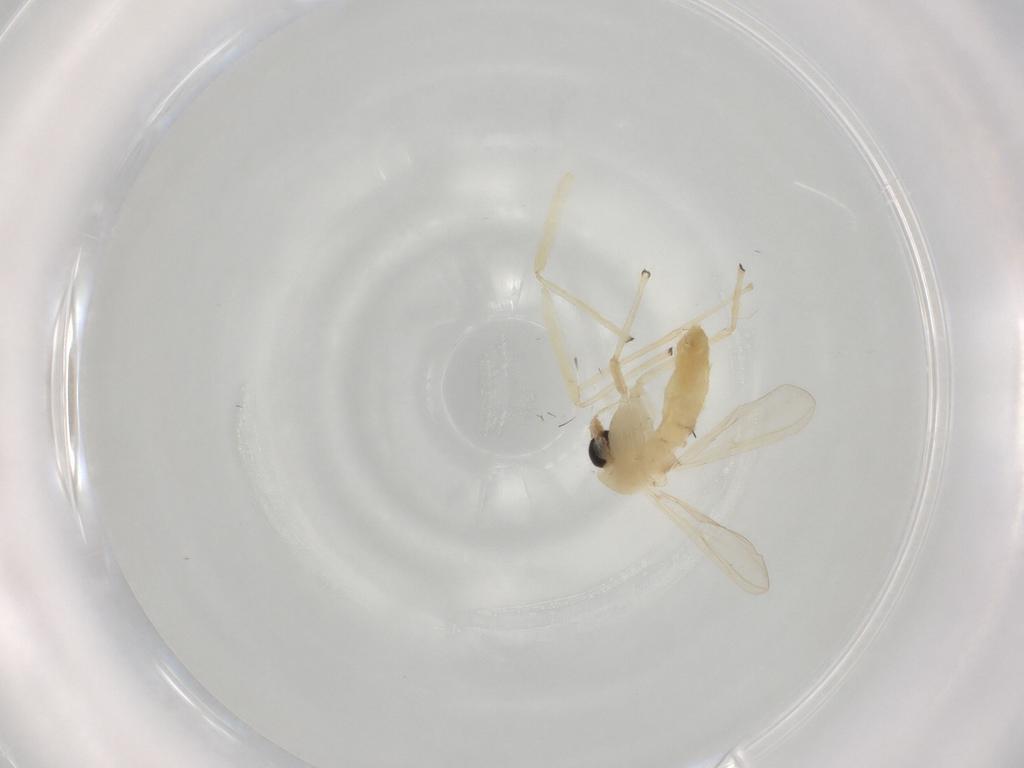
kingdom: Animalia
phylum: Arthropoda
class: Insecta
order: Diptera
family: Chironomidae
